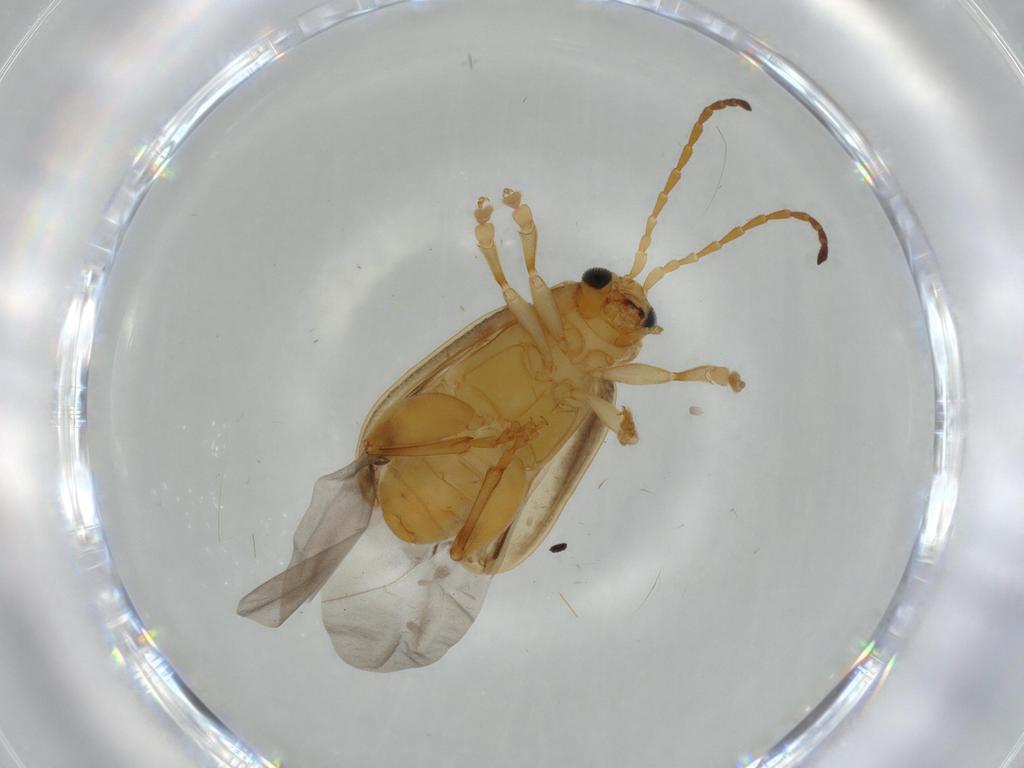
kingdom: Animalia
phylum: Arthropoda
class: Insecta
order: Coleoptera
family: Chrysomelidae
